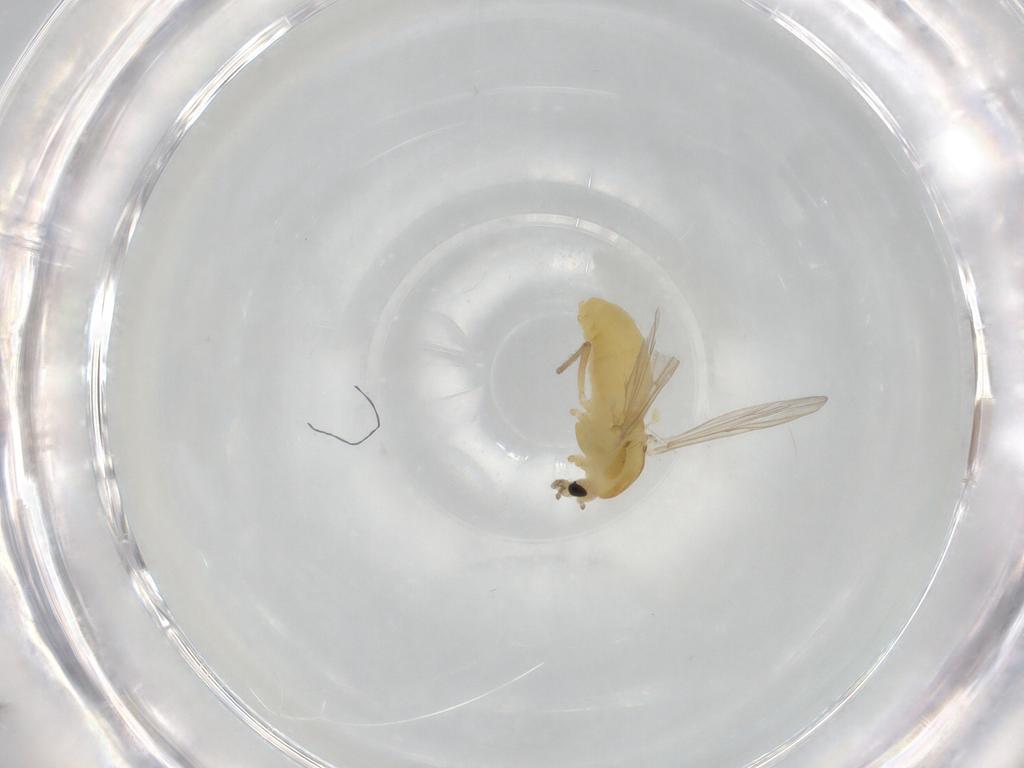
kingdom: Animalia
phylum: Arthropoda
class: Insecta
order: Diptera
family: Chironomidae
